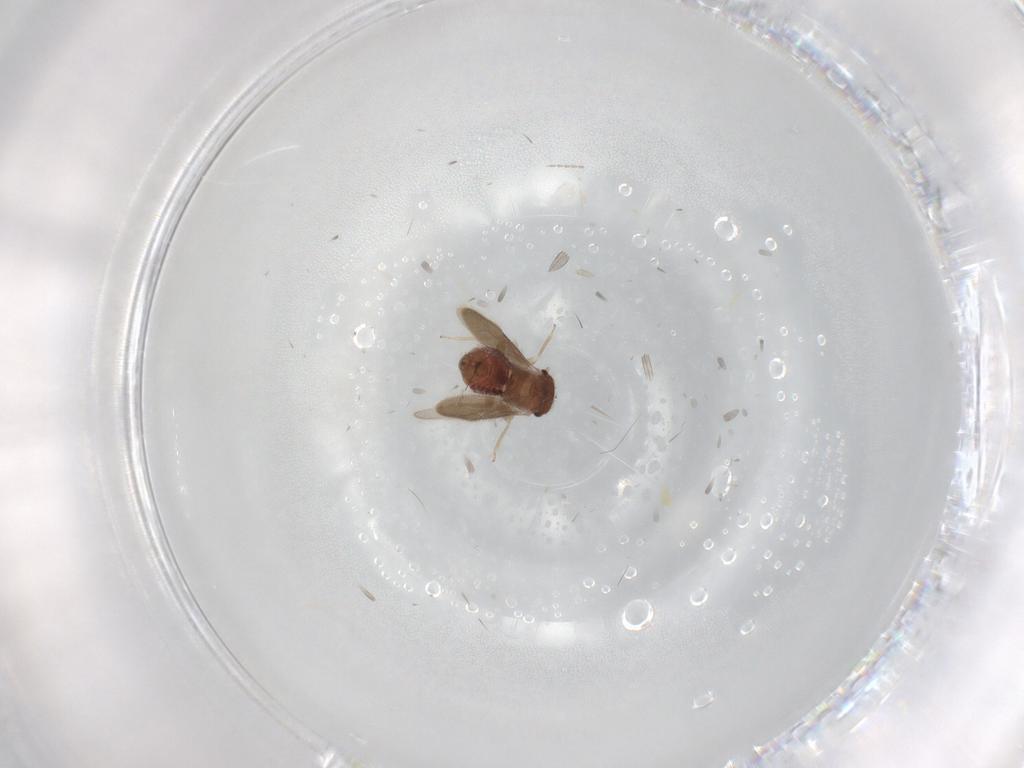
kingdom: Animalia
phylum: Arthropoda
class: Insecta
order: Psocodea
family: Archipsocidae
